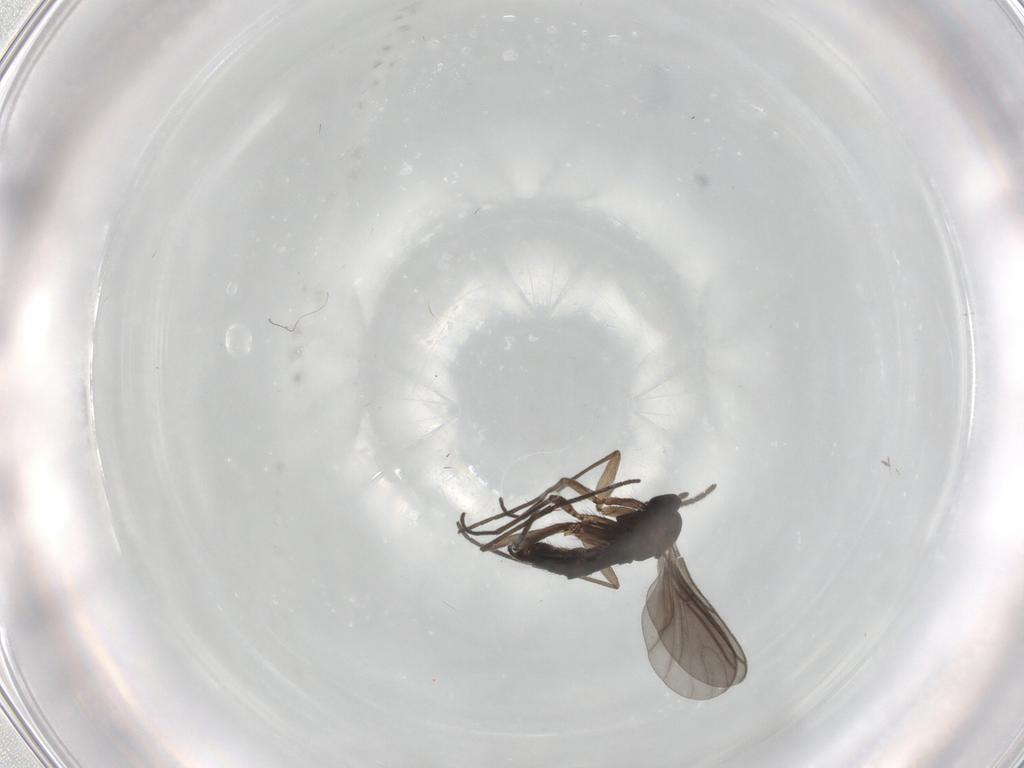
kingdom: Animalia
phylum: Arthropoda
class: Insecta
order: Diptera
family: Sciaridae
